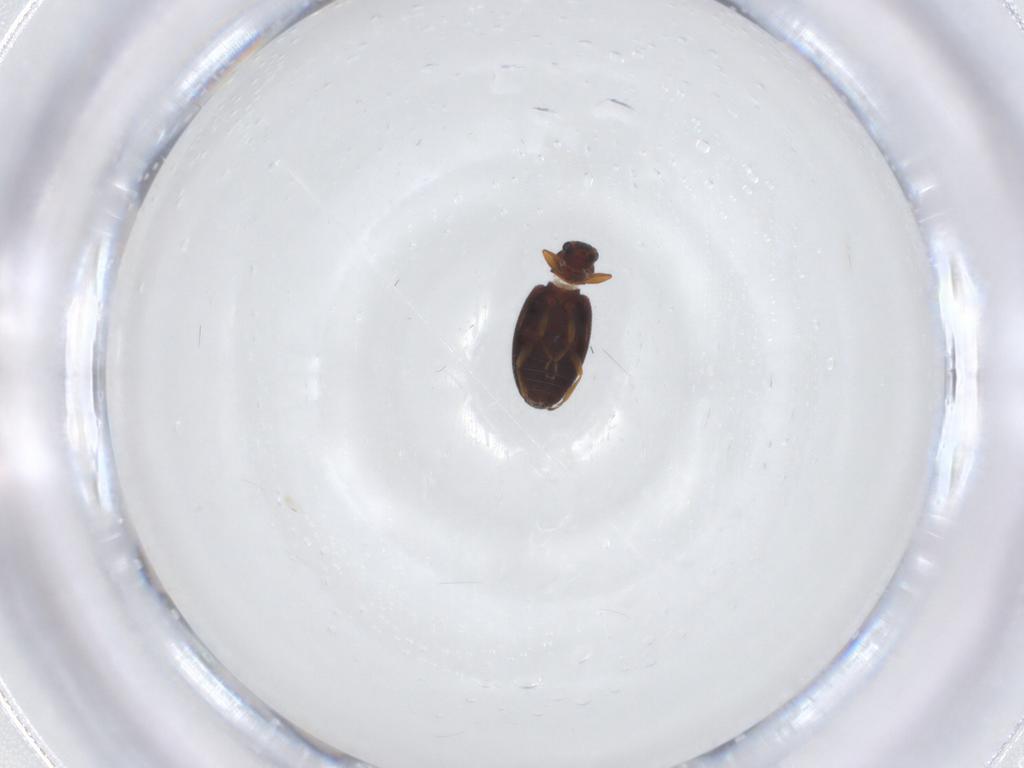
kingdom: Animalia
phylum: Arthropoda
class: Insecta
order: Coleoptera
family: Latridiidae
